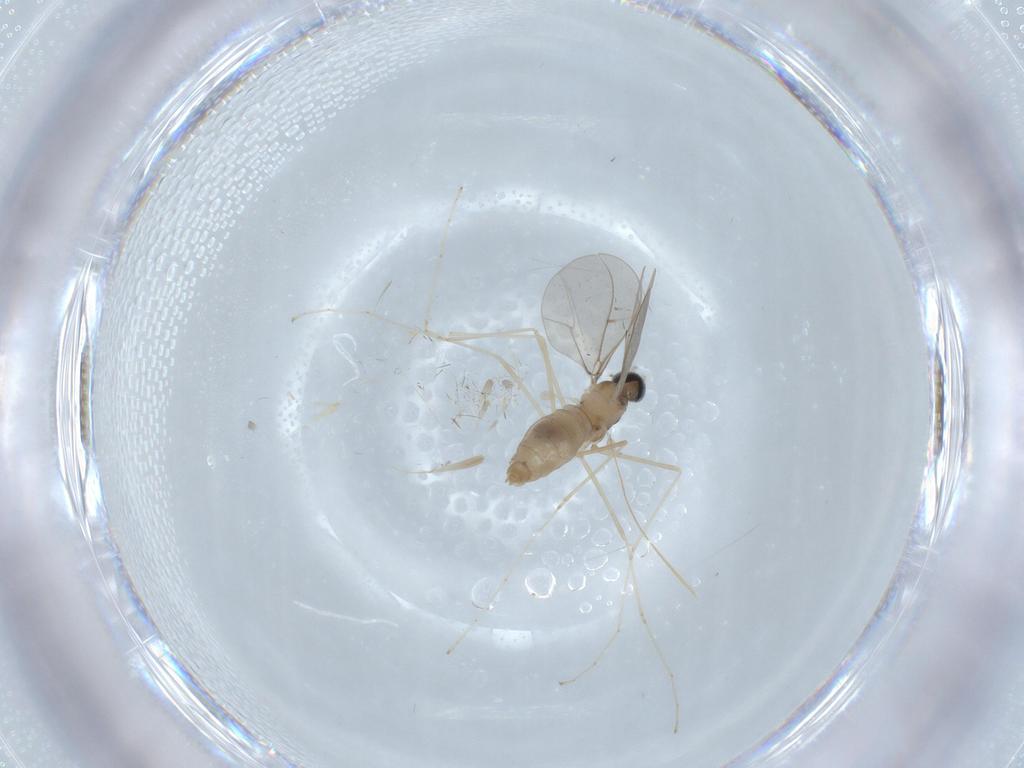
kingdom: Animalia
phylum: Arthropoda
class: Insecta
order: Diptera
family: Cecidomyiidae
